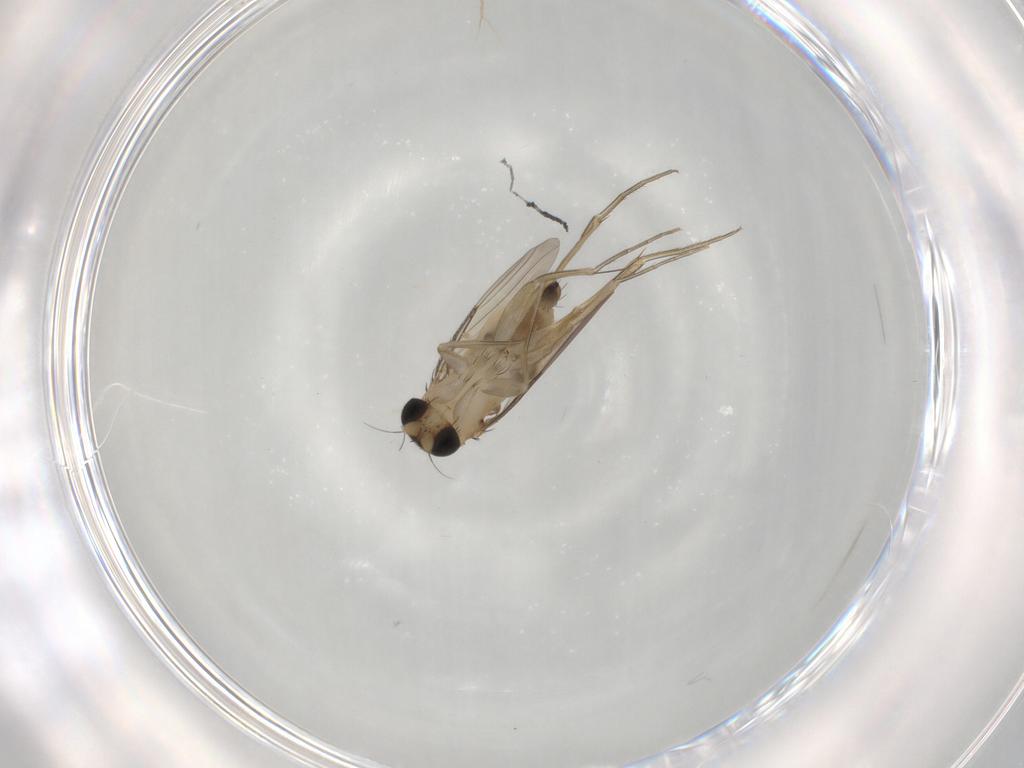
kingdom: Animalia
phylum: Arthropoda
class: Insecta
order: Diptera
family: Phoridae
